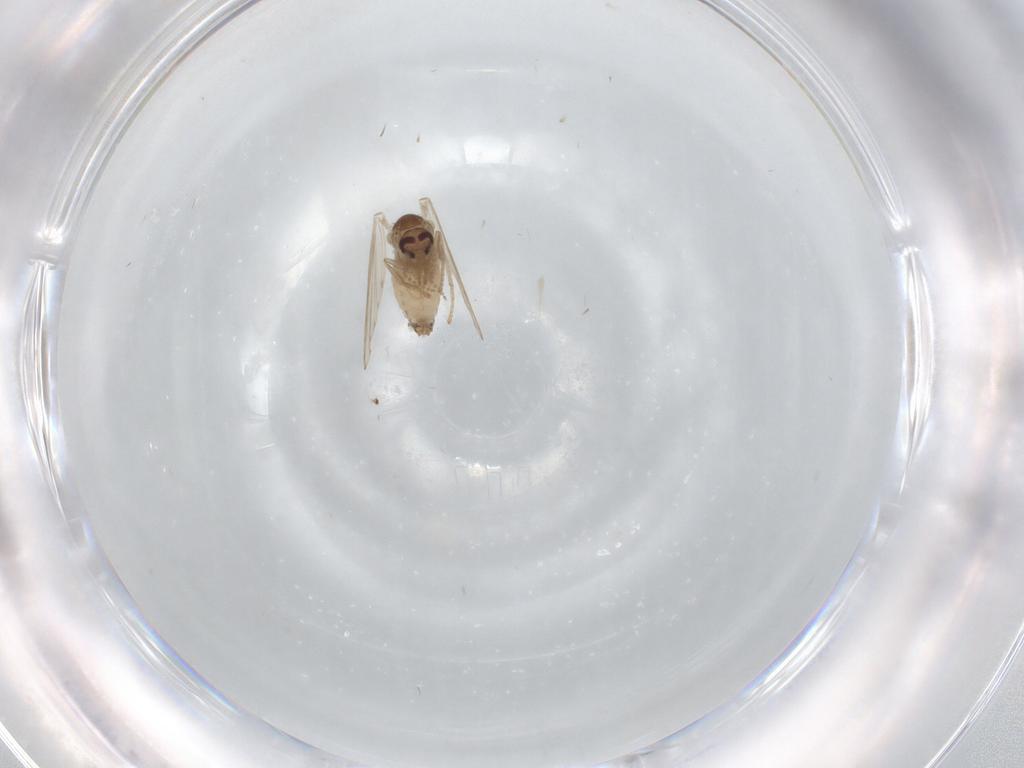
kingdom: Animalia
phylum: Arthropoda
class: Insecta
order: Diptera
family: Psychodidae
